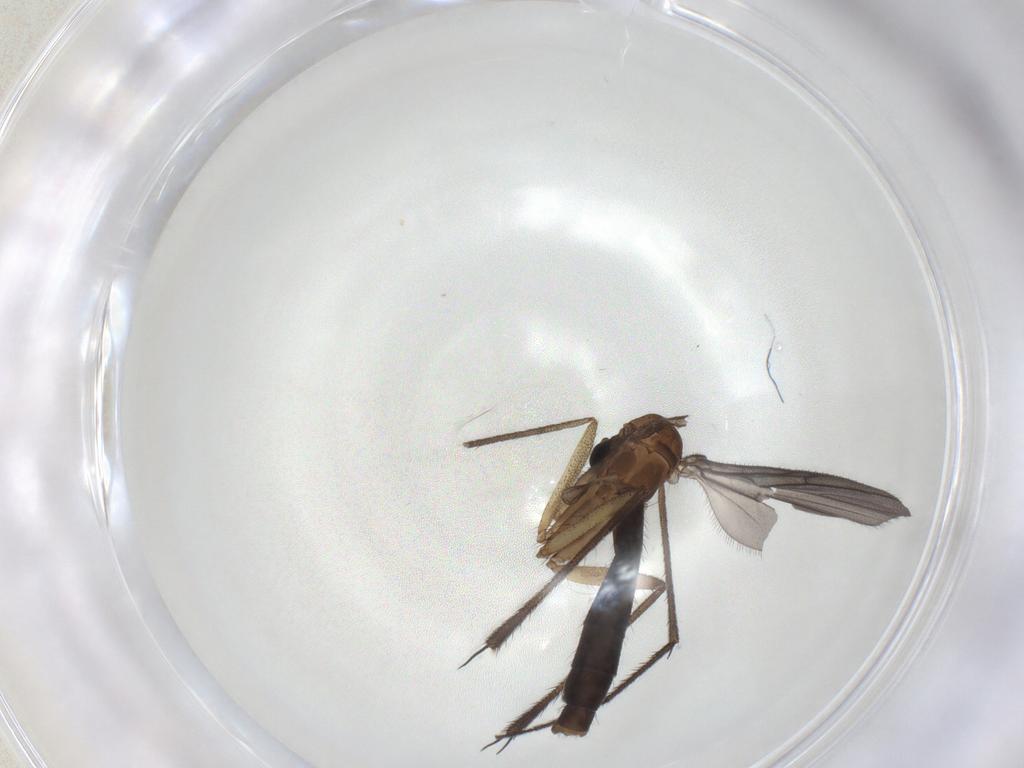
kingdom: Animalia
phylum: Arthropoda
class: Insecta
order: Diptera
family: Ditomyiidae
